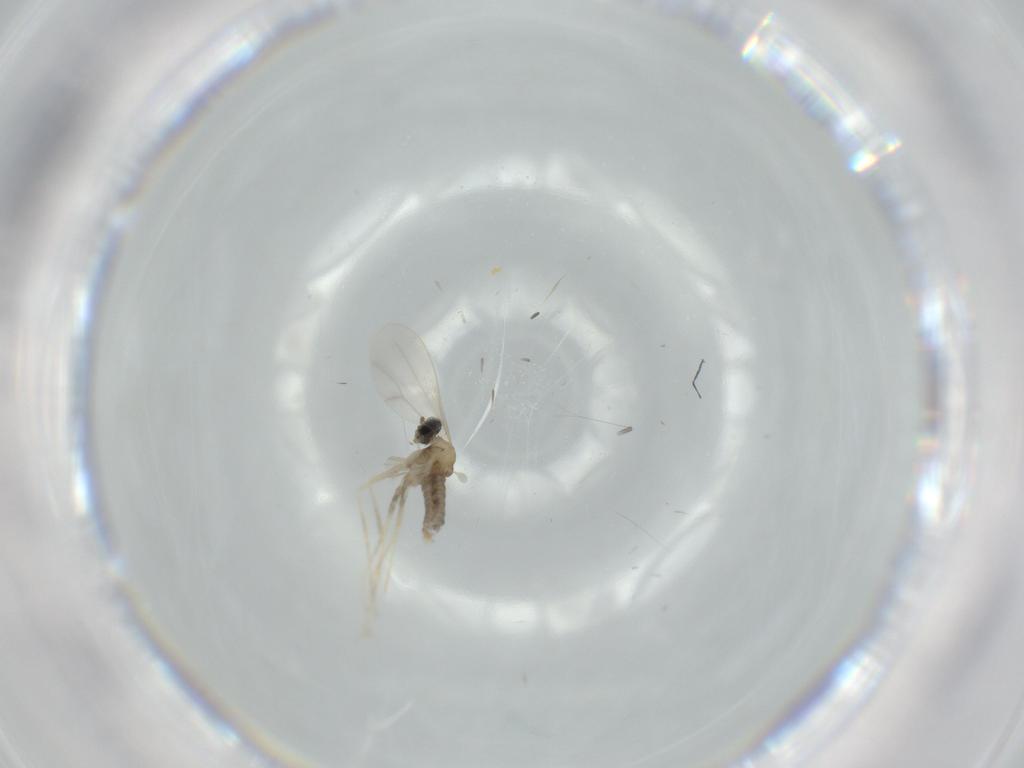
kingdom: Animalia
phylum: Arthropoda
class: Insecta
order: Diptera
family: Cecidomyiidae
